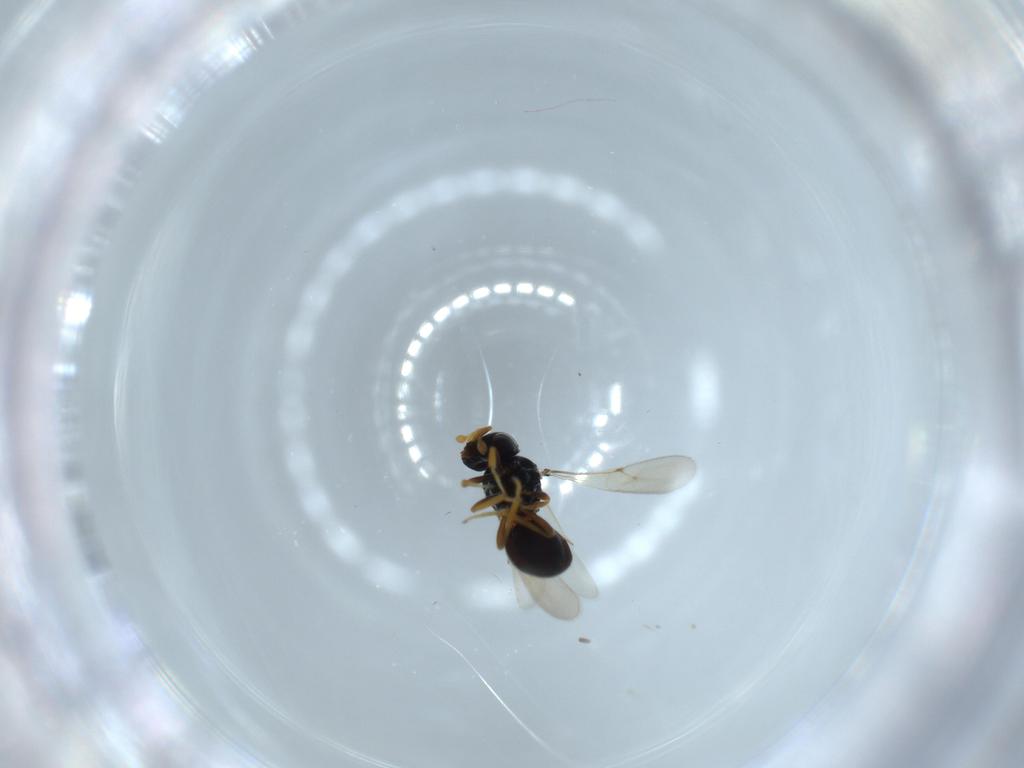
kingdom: Animalia
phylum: Arthropoda
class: Insecta
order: Hymenoptera
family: Scelionidae
